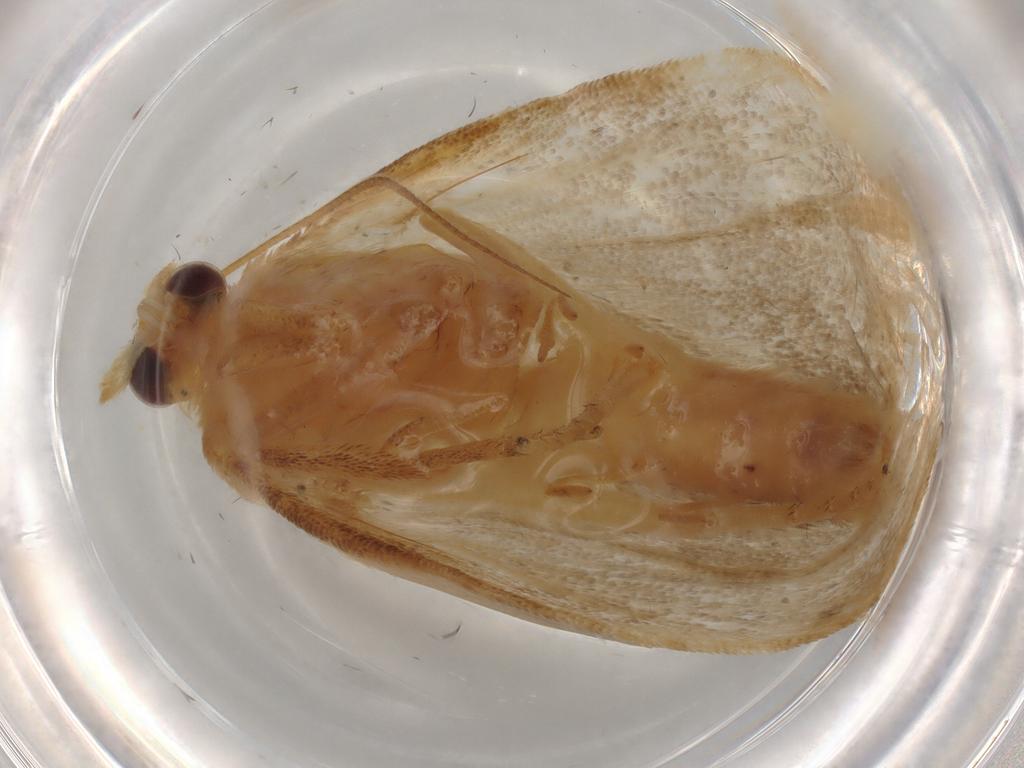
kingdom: Animalia
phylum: Arthropoda
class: Insecta
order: Lepidoptera
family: Tortricidae
